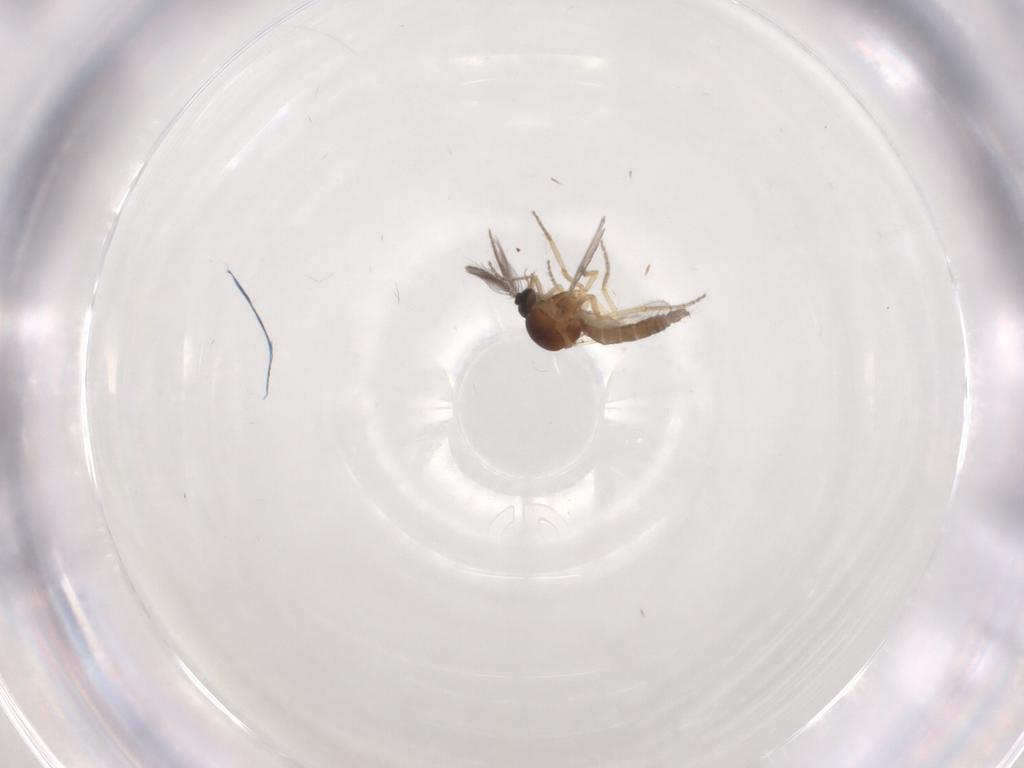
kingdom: Animalia
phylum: Arthropoda
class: Insecta
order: Diptera
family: Ceratopogonidae
